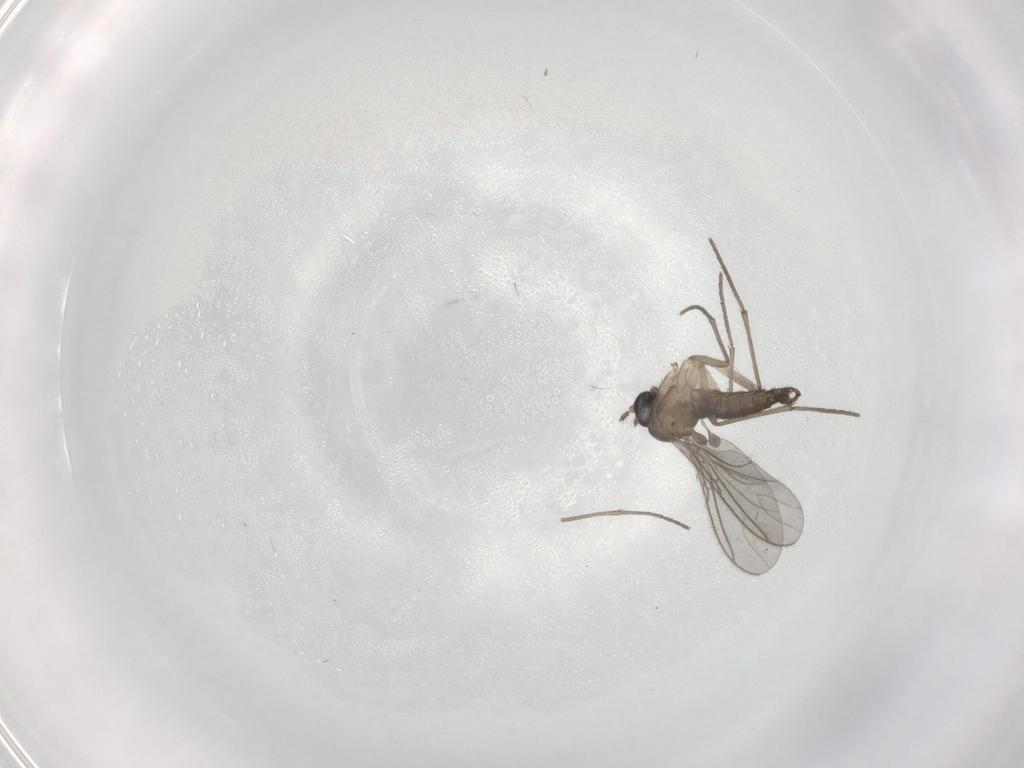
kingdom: Animalia
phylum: Arthropoda
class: Insecta
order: Diptera
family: Sciaridae
